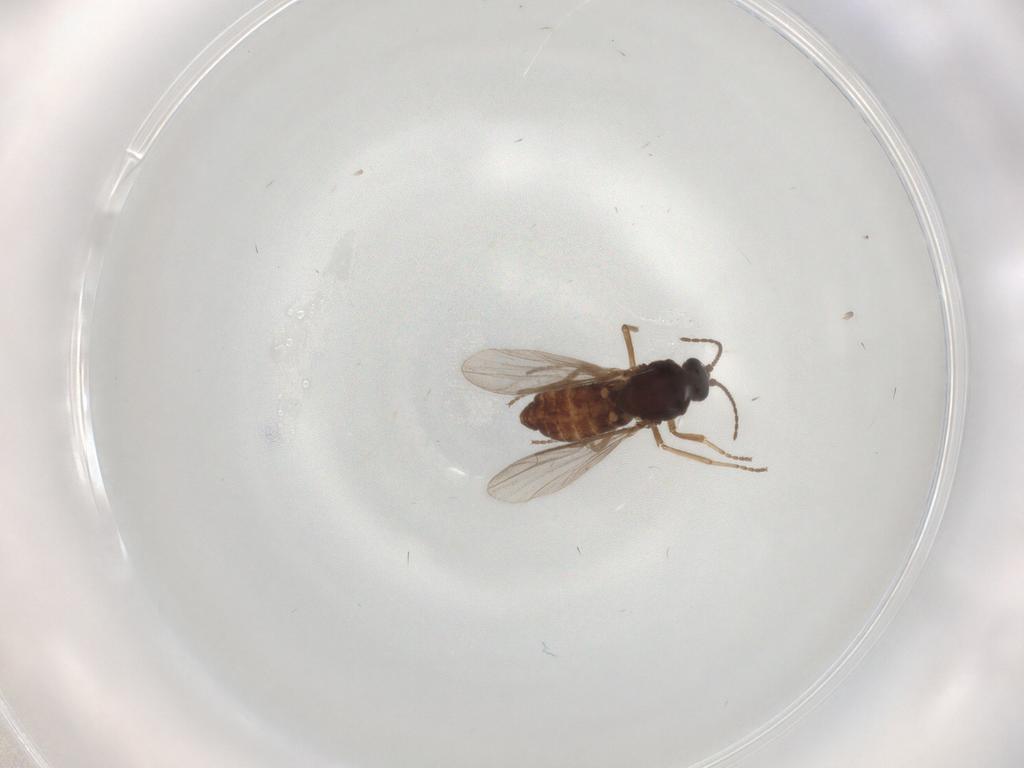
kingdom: Animalia
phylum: Arthropoda
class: Insecta
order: Diptera
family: Ceratopogonidae
